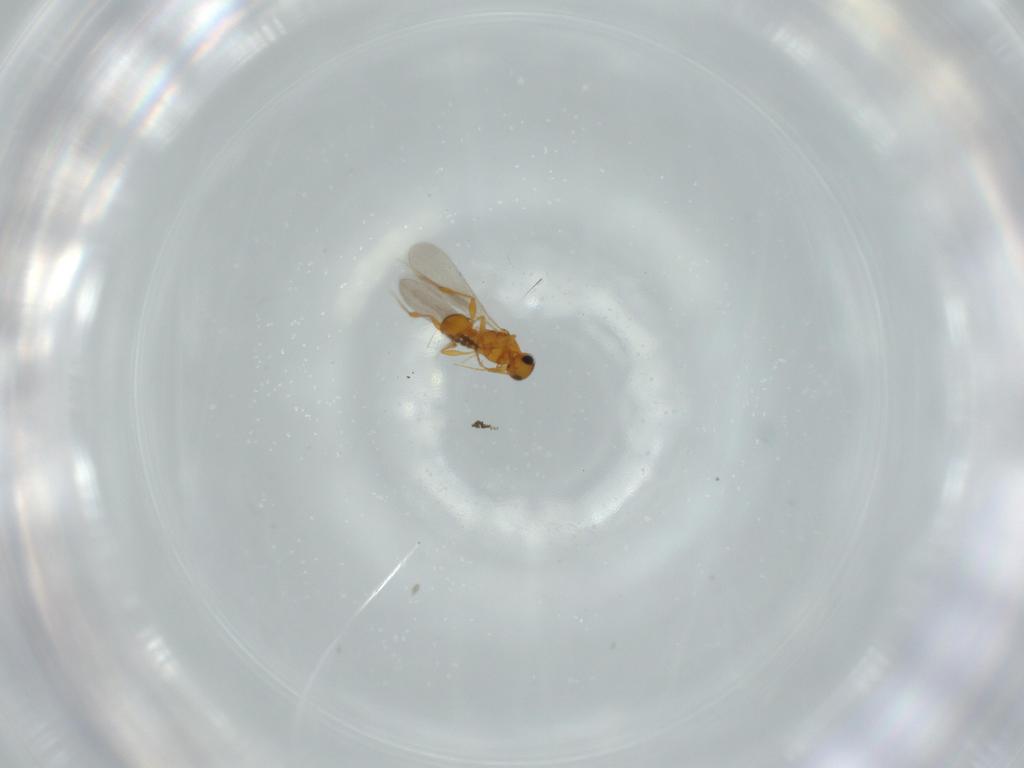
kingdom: Animalia
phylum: Arthropoda
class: Insecta
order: Hymenoptera
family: Platygastridae
